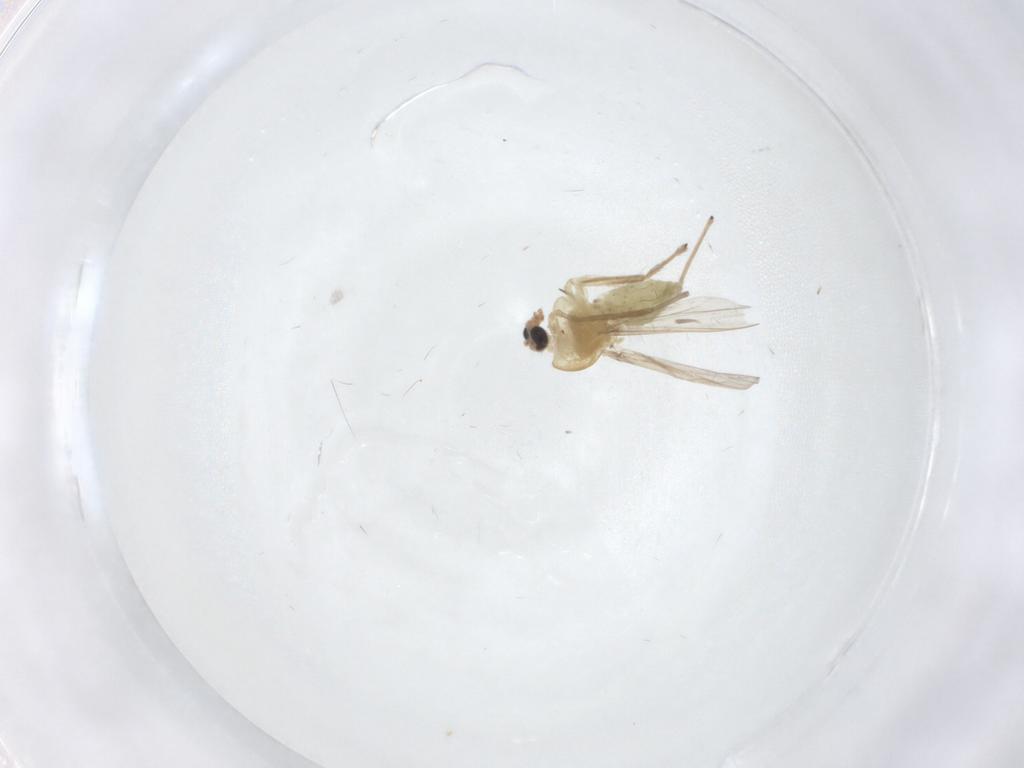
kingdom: Animalia
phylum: Arthropoda
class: Insecta
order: Diptera
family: Chironomidae
